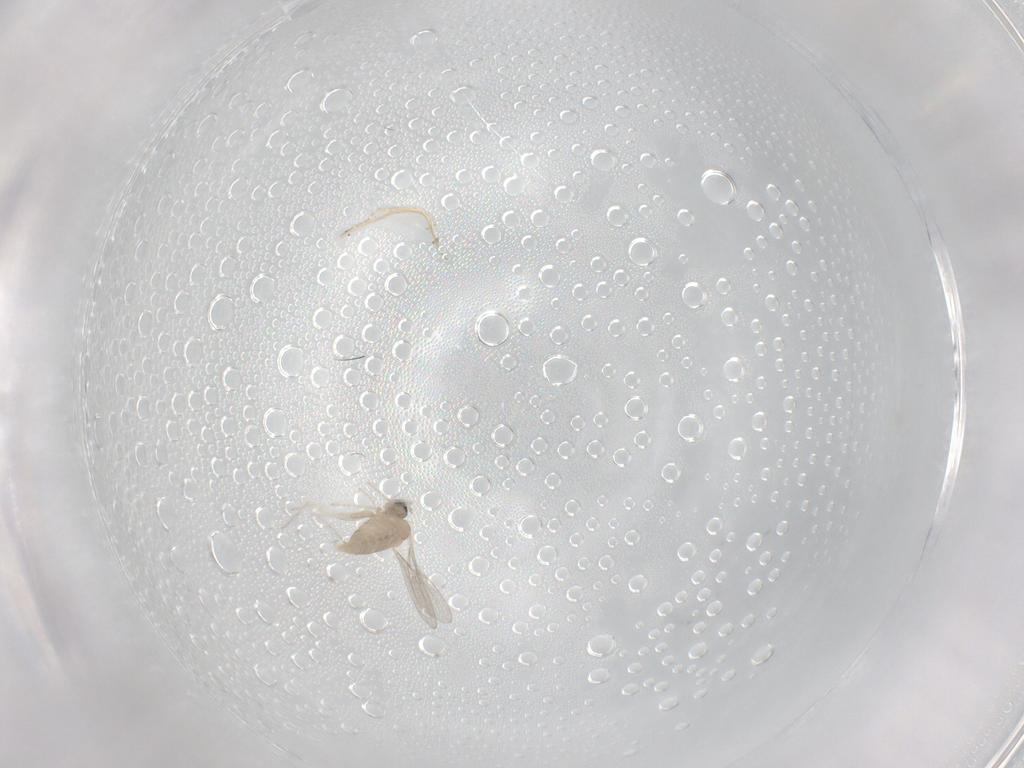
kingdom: Animalia
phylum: Arthropoda
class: Insecta
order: Diptera
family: Cecidomyiidae
